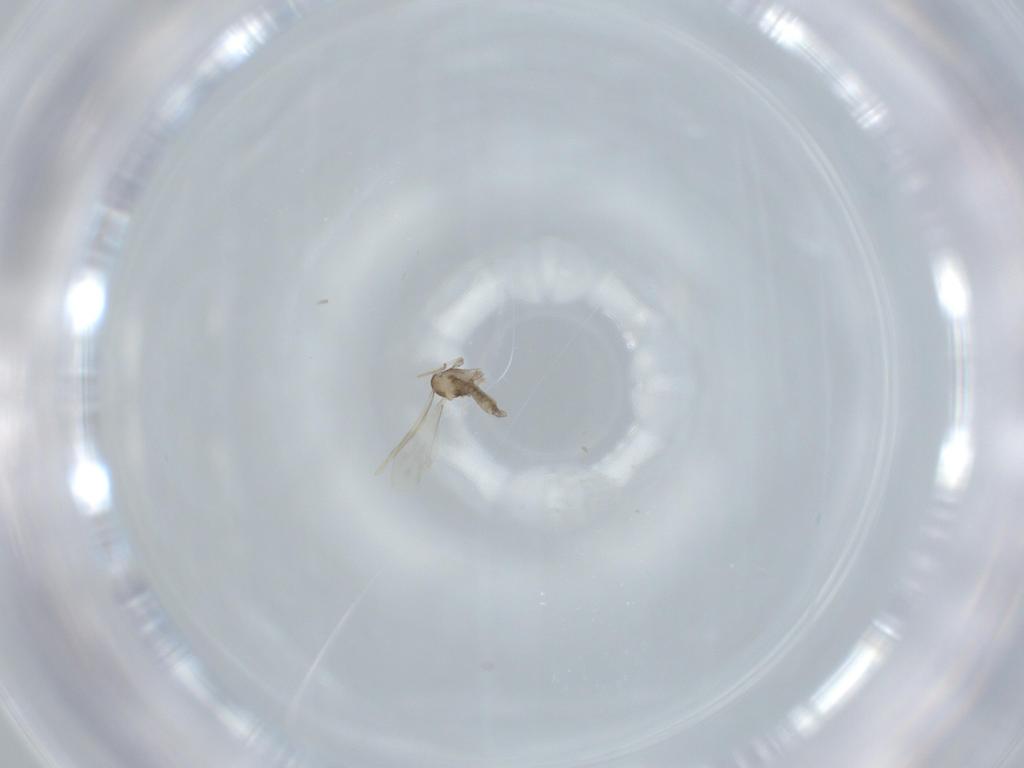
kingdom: Animalia
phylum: Arthropoda
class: Insecta
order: Diptera
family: Cecidomyiidae
